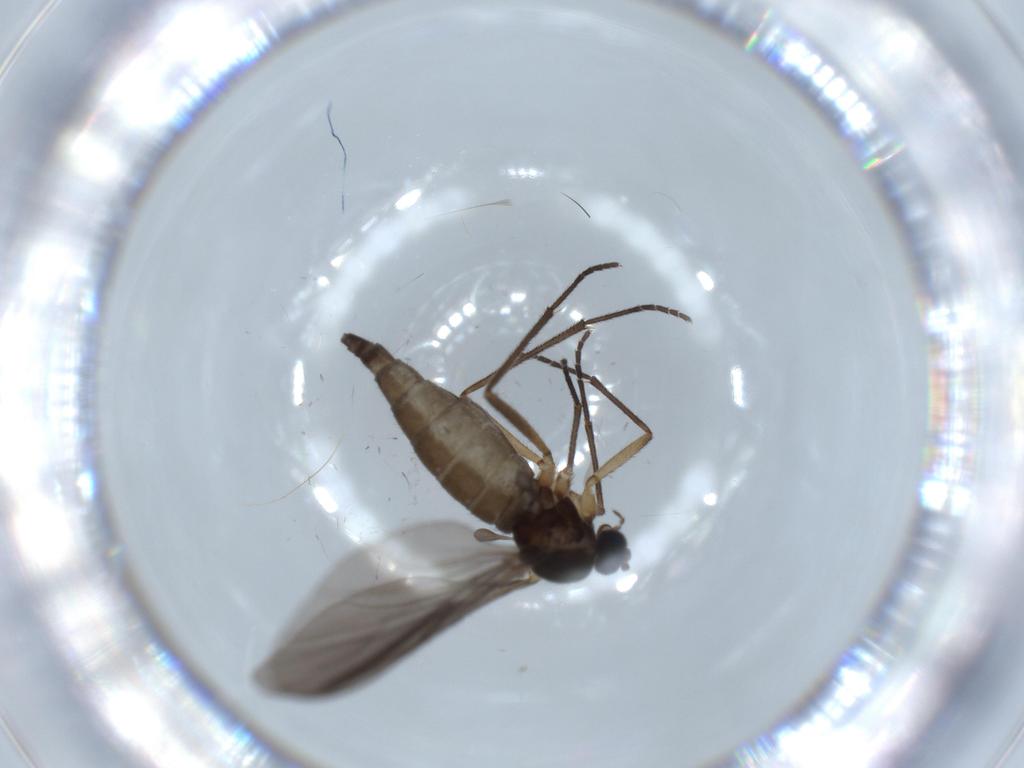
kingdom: Animalia
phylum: Arthropoda
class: Insecta
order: Diptera
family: Sciaridae
